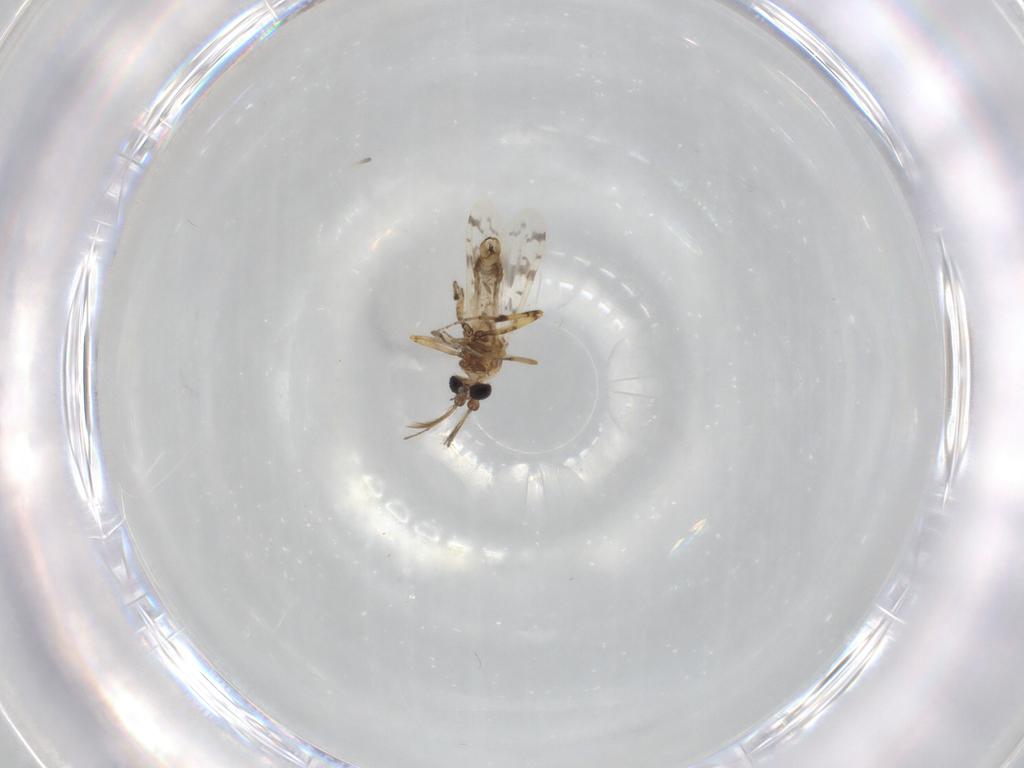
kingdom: Animalia
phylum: Arthropoda
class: Insecta
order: Diptera
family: Ceratopogonidae
